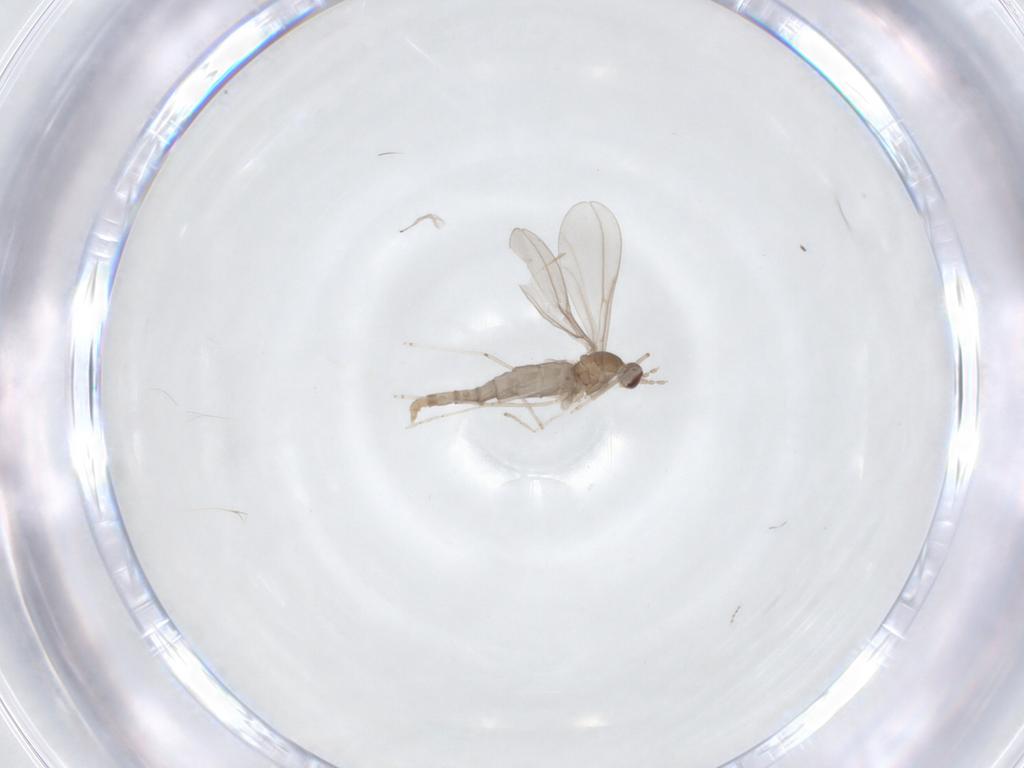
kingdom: Animalia
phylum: Arthropoda
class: Insecta
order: Diptera
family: Cecidomyiidae
